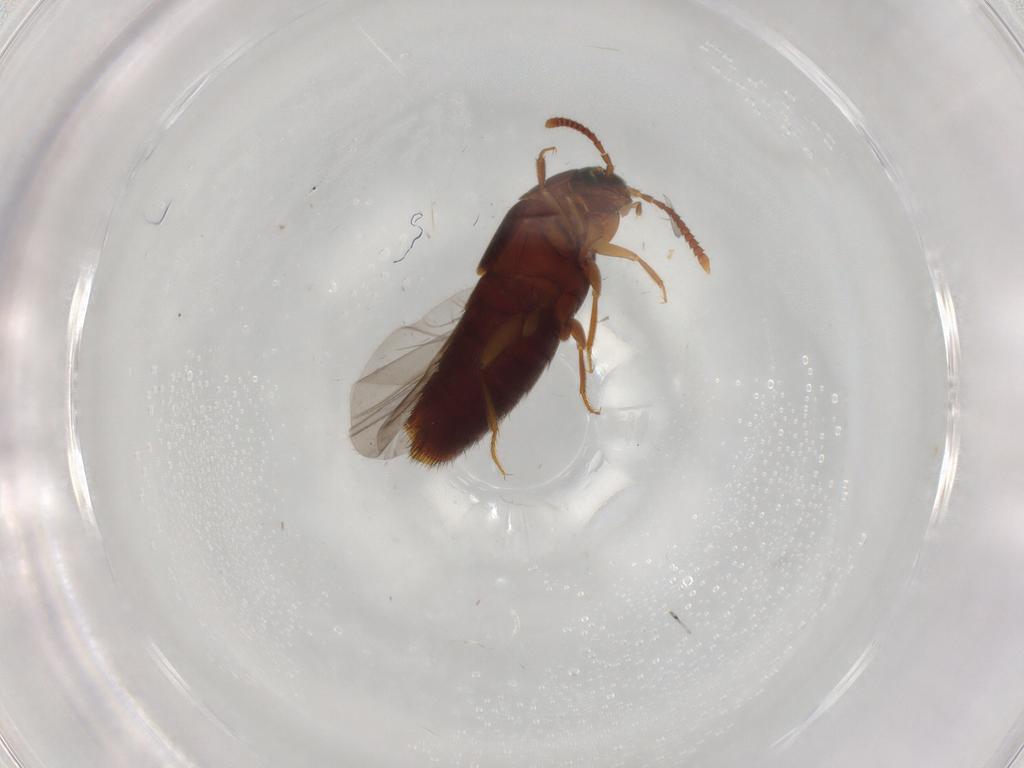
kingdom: Animalia
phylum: Arthropoda
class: Insecta
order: Coleoptera
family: Staphylinidae
